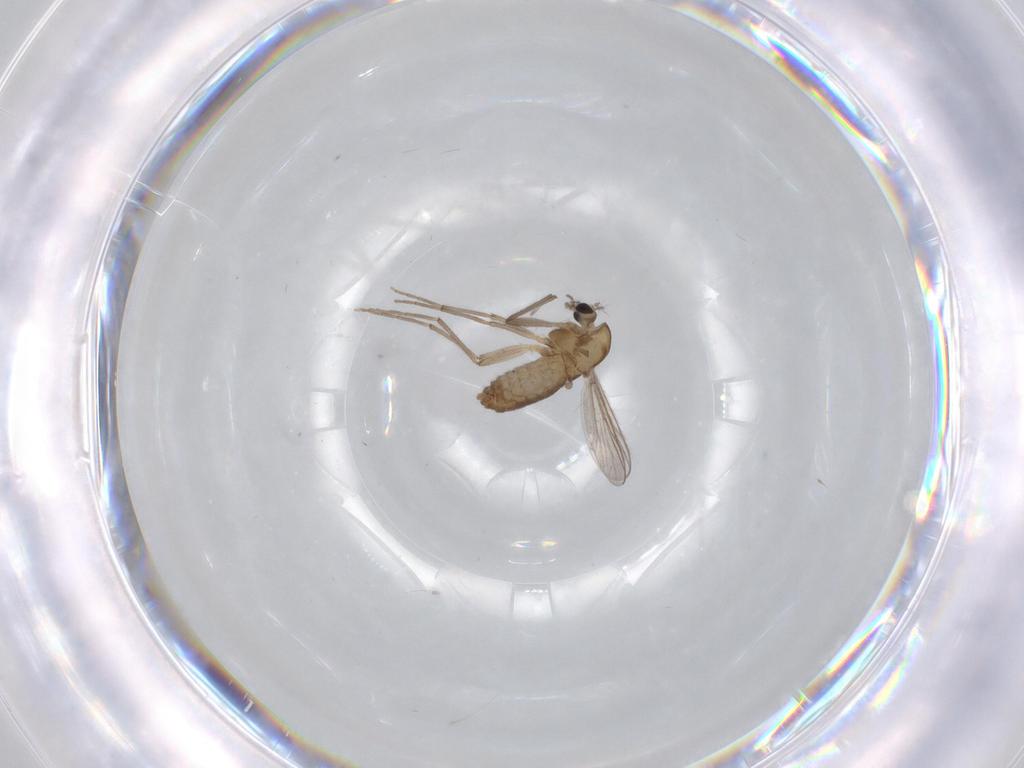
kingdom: Animalia
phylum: Arthropoda
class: Insecta
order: Diptera
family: Chironomidae
